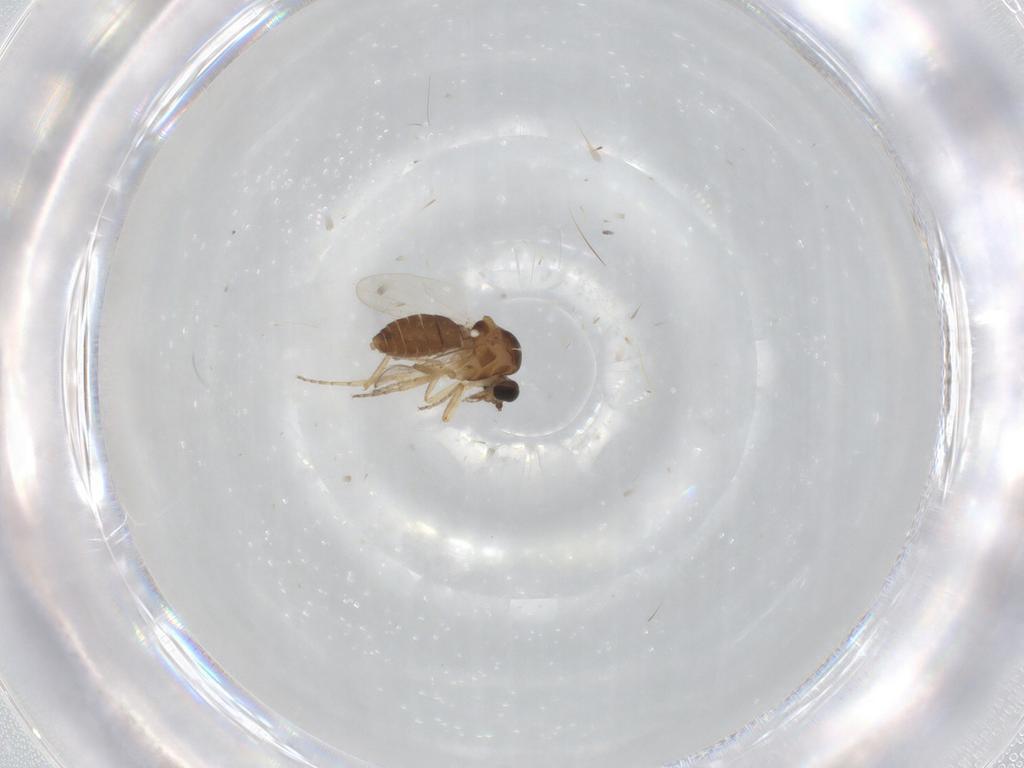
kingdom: Animalia
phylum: Arthropoda
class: Insecta
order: Diptera
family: Ceratopogonidae
